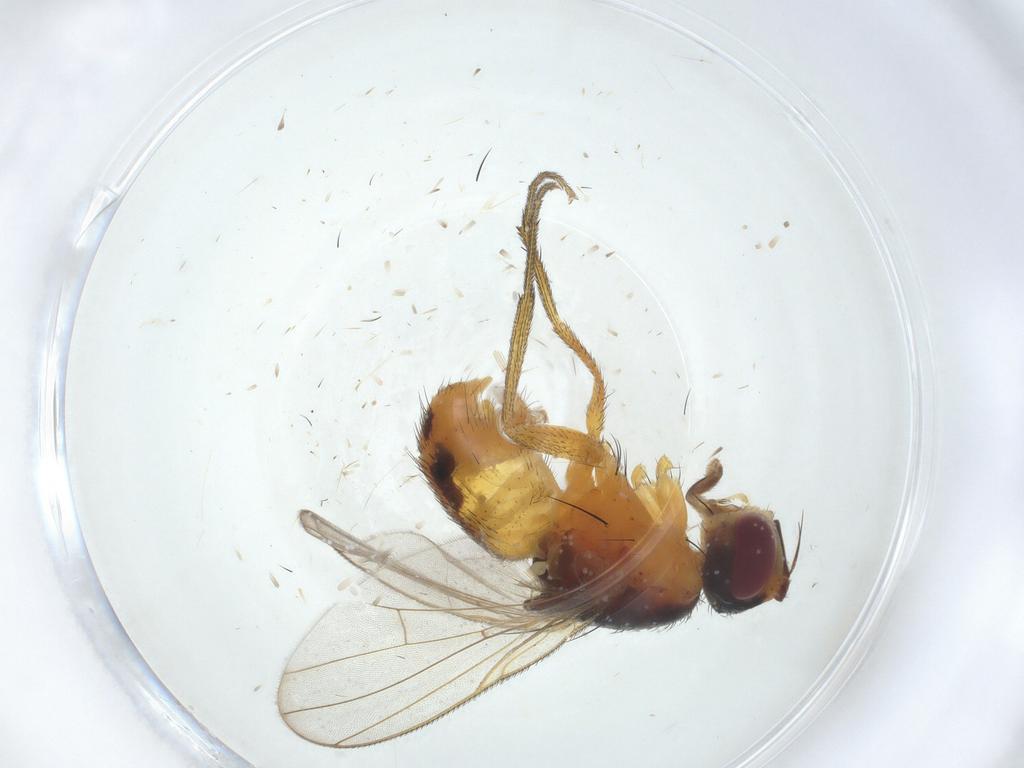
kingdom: Animalia
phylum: Arthropoda
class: Insecta
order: Diptera
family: Muscidae
